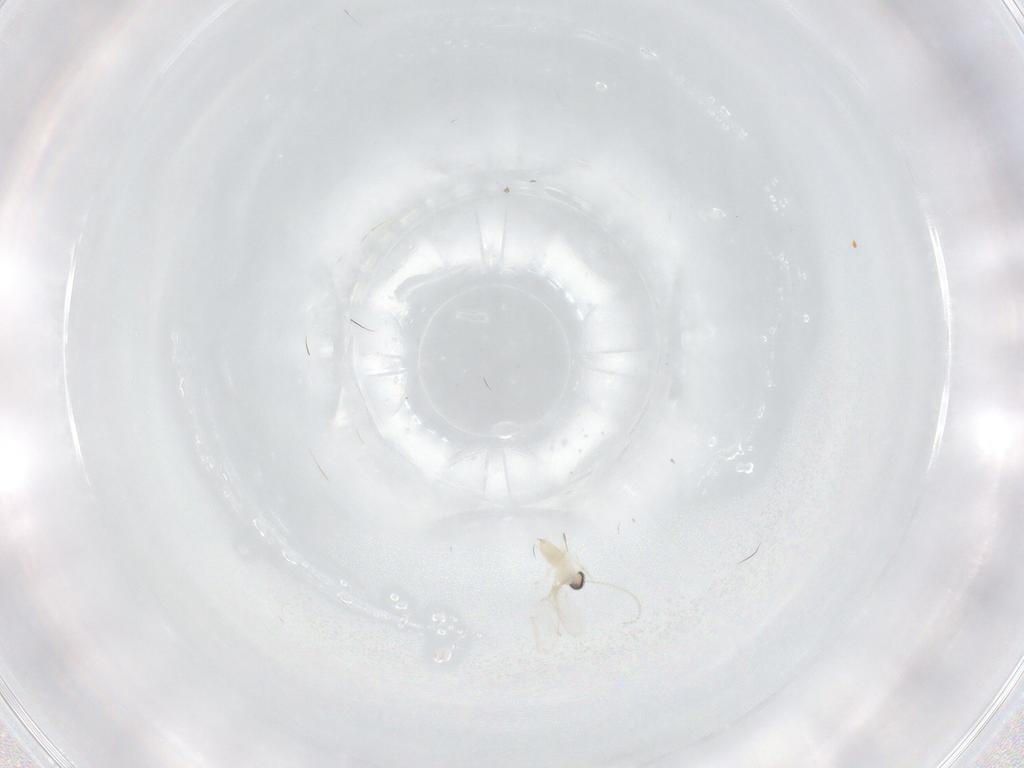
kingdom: Animalia
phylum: Arthropoda
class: Insecta
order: Diptera
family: Cecidomyiidae
